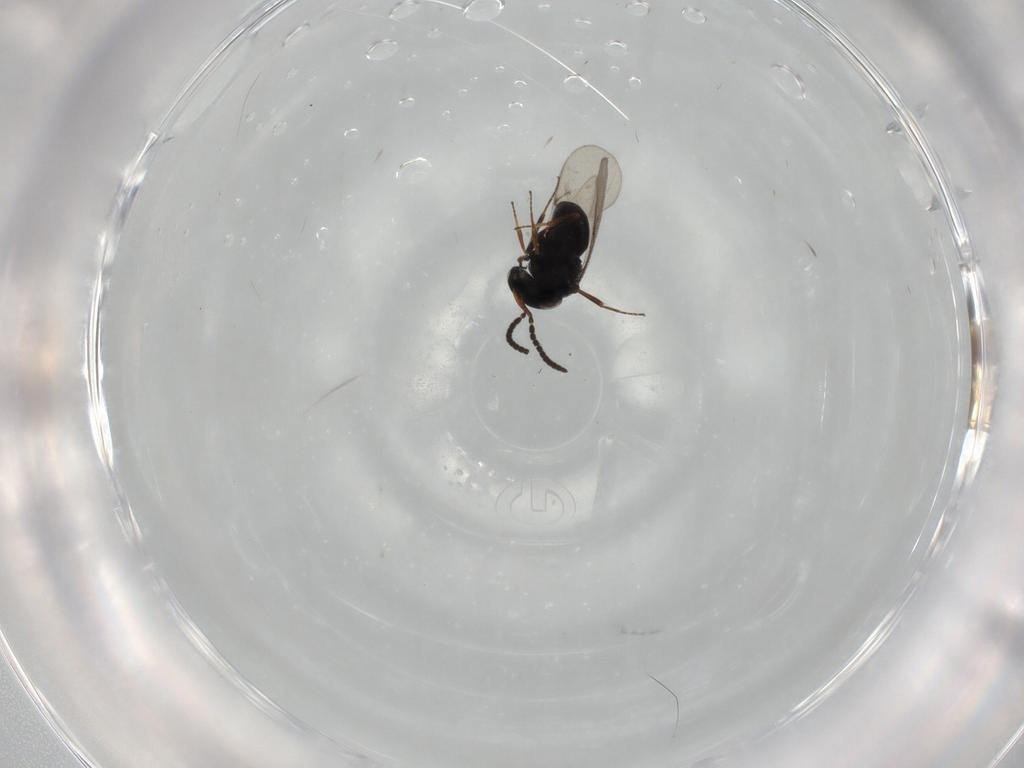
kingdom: Animalia
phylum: Arthropoda
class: Insecta
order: Hymenoptera
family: Scelionidae
